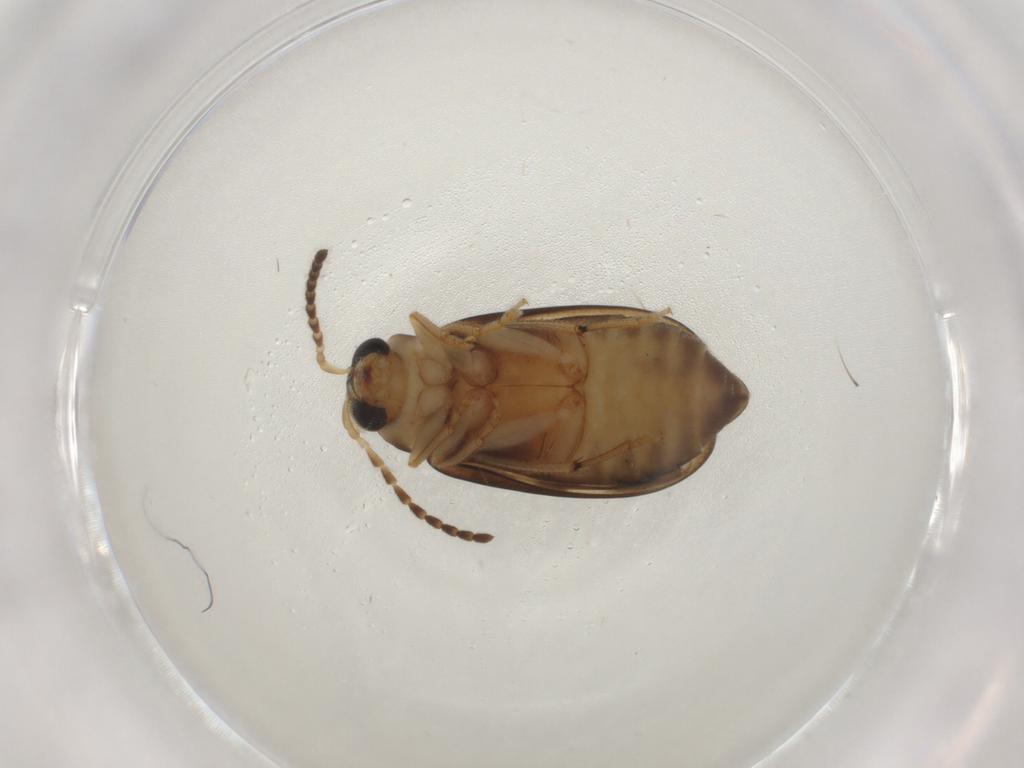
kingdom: Animalia
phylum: Arthropoda
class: Insecta
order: Coleoptera
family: Chrysomelidae
